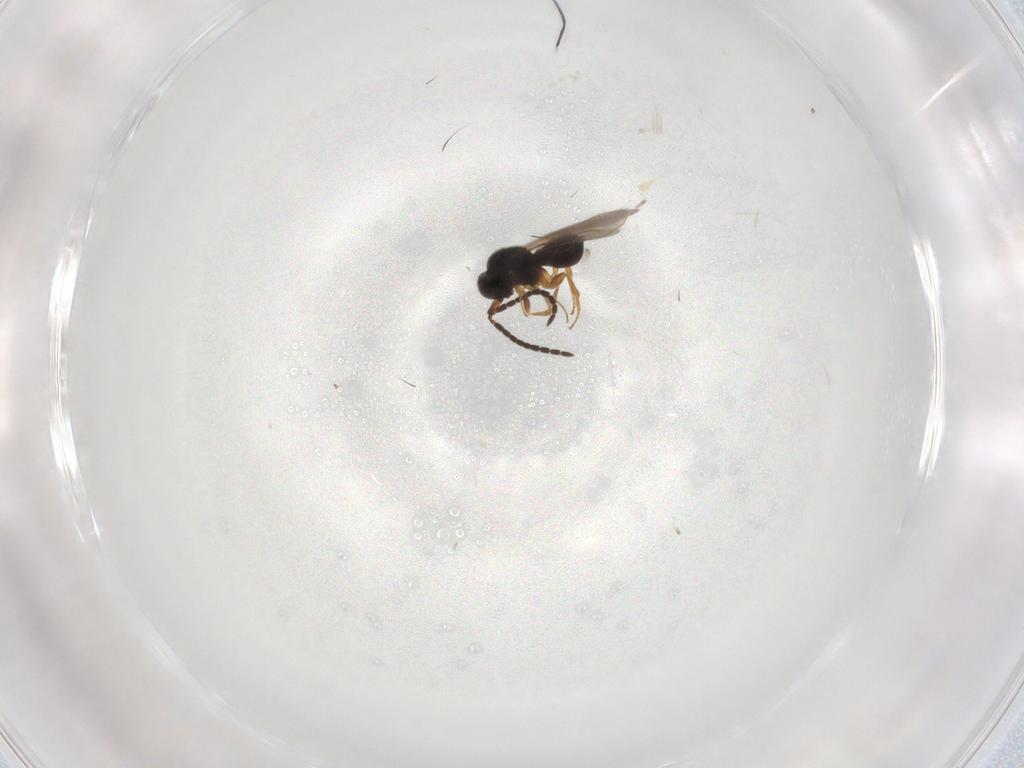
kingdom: Animalia
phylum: Arthropoda
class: Insecta
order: Hymenoptera
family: Ceraphronidae
